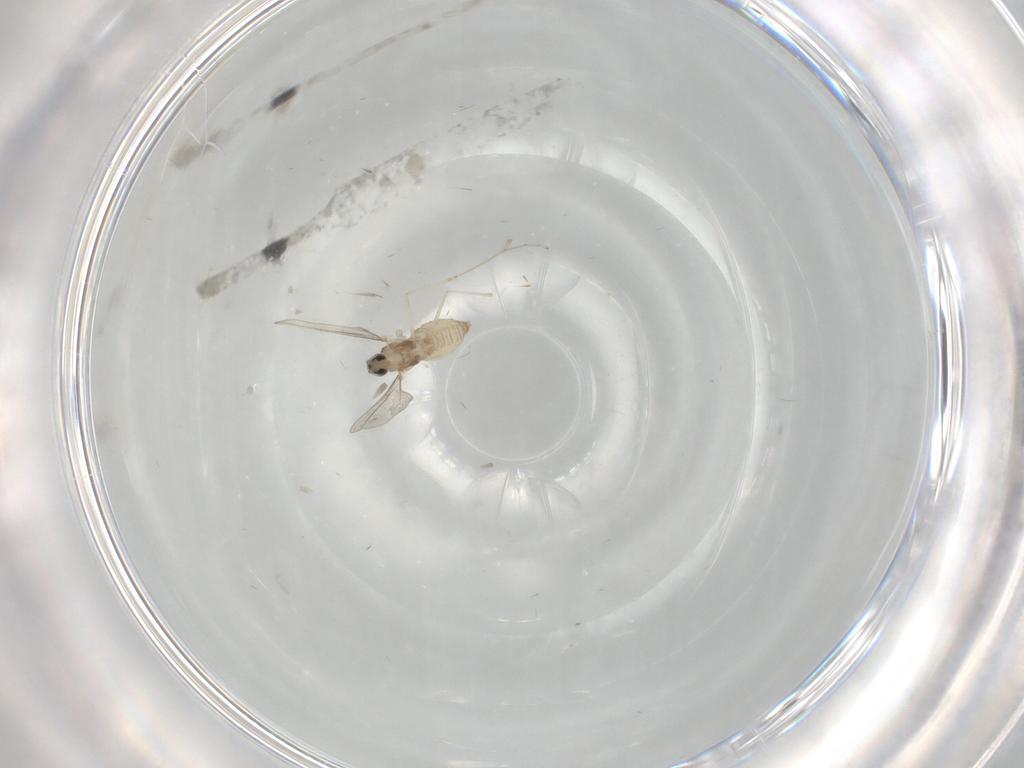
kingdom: Animalia
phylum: Arthropoda
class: Insecta
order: Diptera
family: Cecidomyiidae
